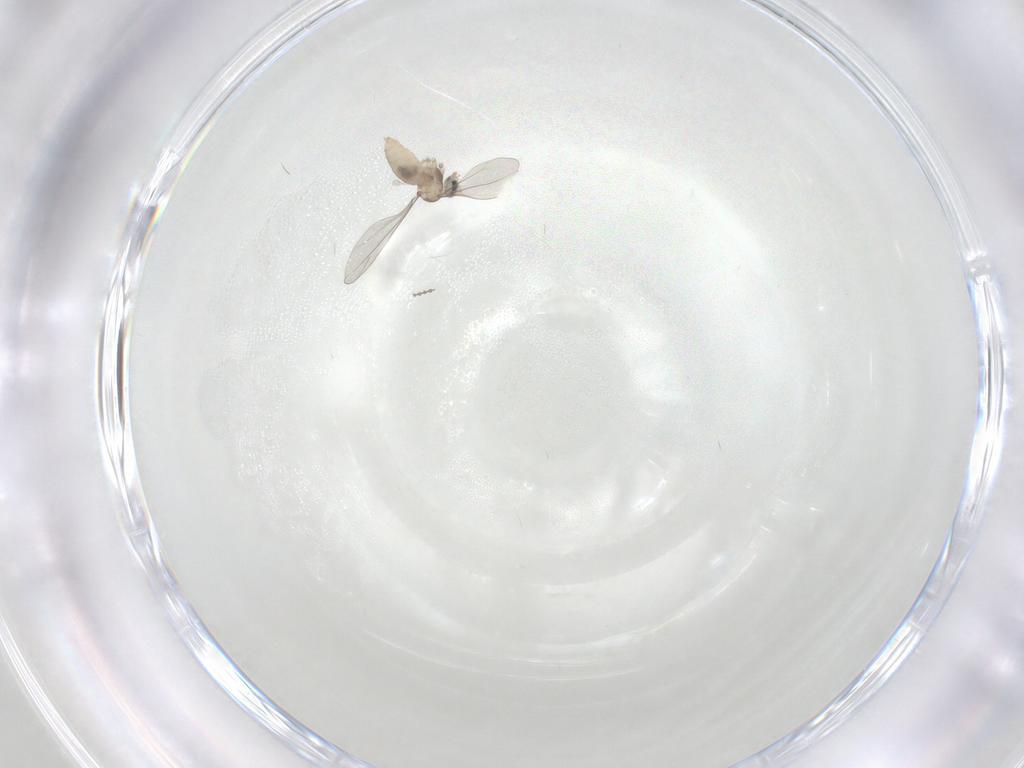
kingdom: Animalia
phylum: Arthropoda
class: Insecta
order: Diptera
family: Cecidomyiidae
